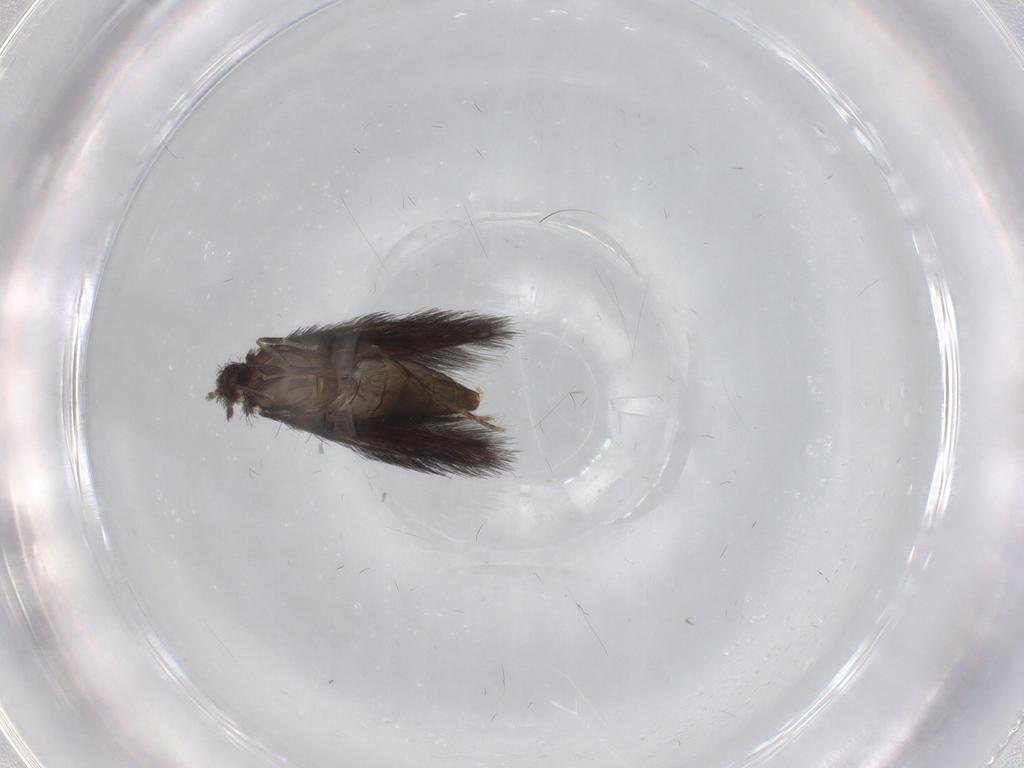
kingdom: Animalia
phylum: Arthropoda
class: Insecta
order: Trichoptera
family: Hydroptilidae
